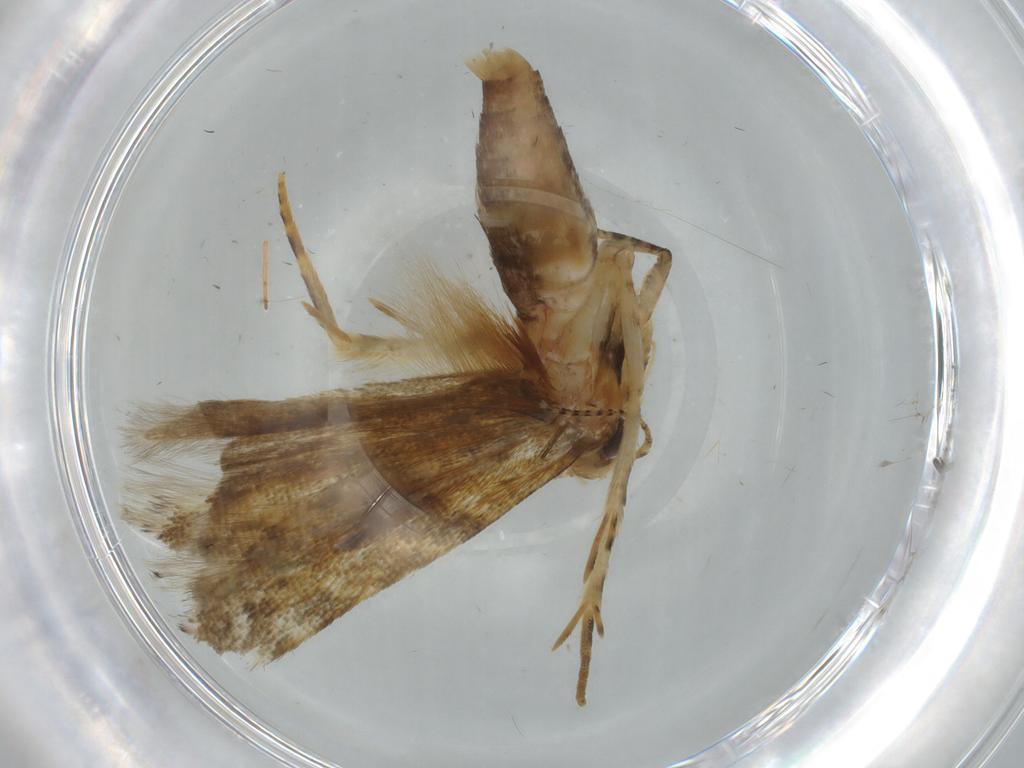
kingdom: Animalia
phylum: Arthropoda
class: Insecta
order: Lepidoptera
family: Gelechiidae
